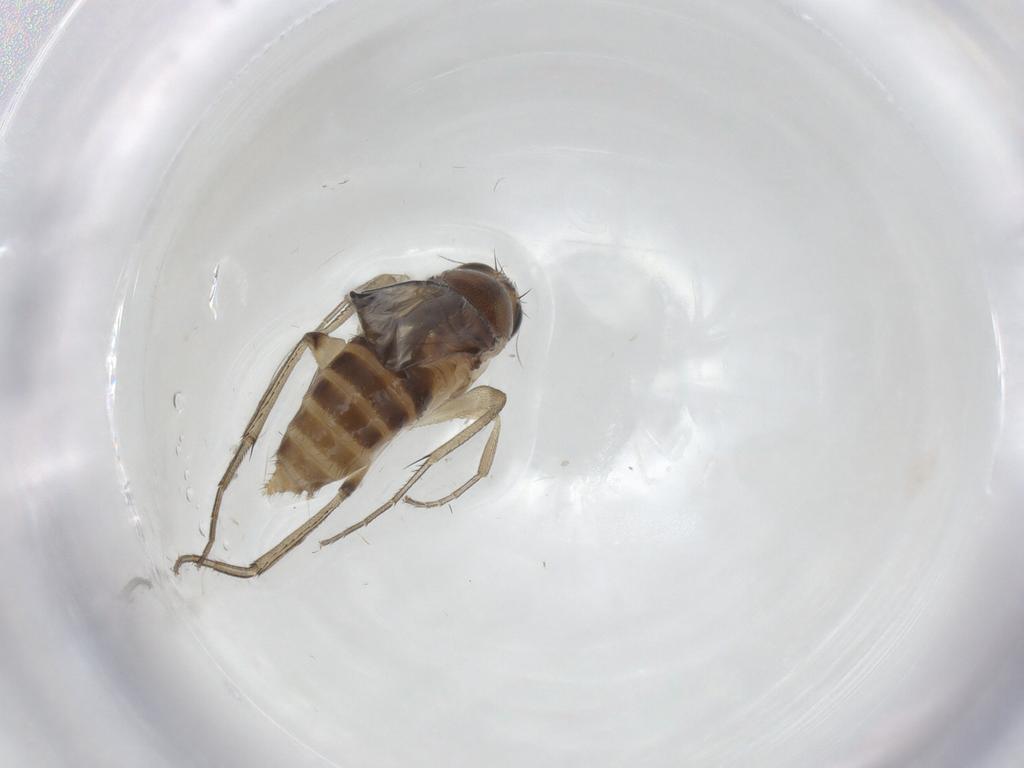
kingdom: Animalia
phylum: Arthropoda
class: Insecta
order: Diptera
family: Phoridae
